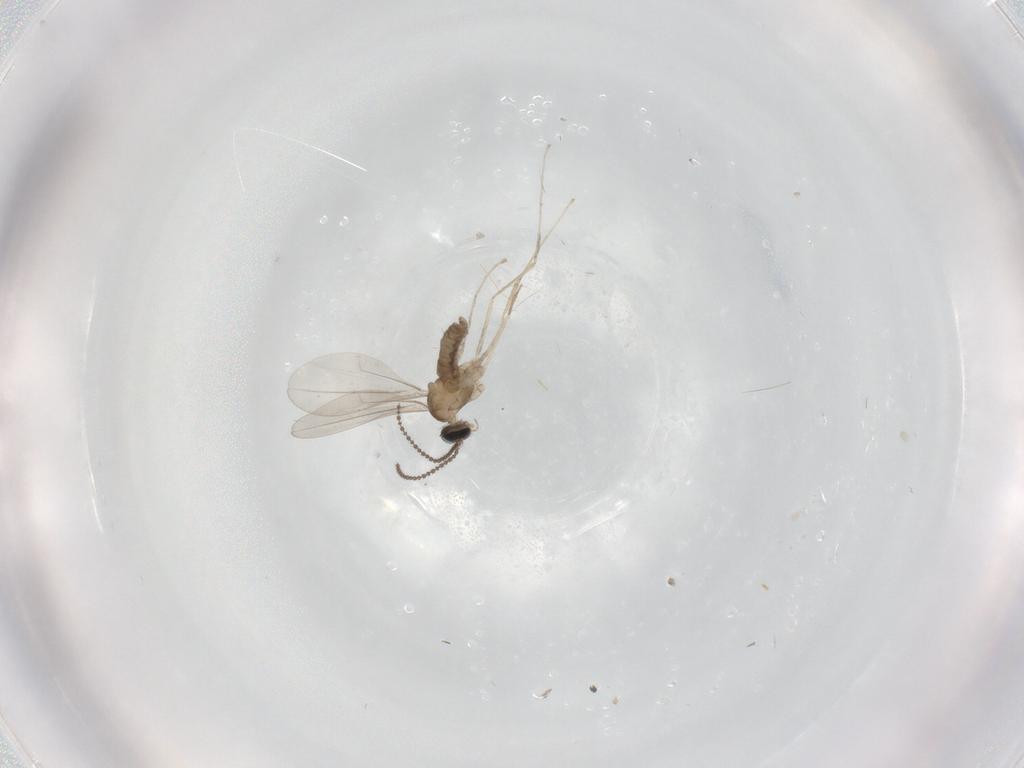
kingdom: Animalia
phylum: Arthropoda
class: Insecta
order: Diptera
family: Cecidomyiidae
